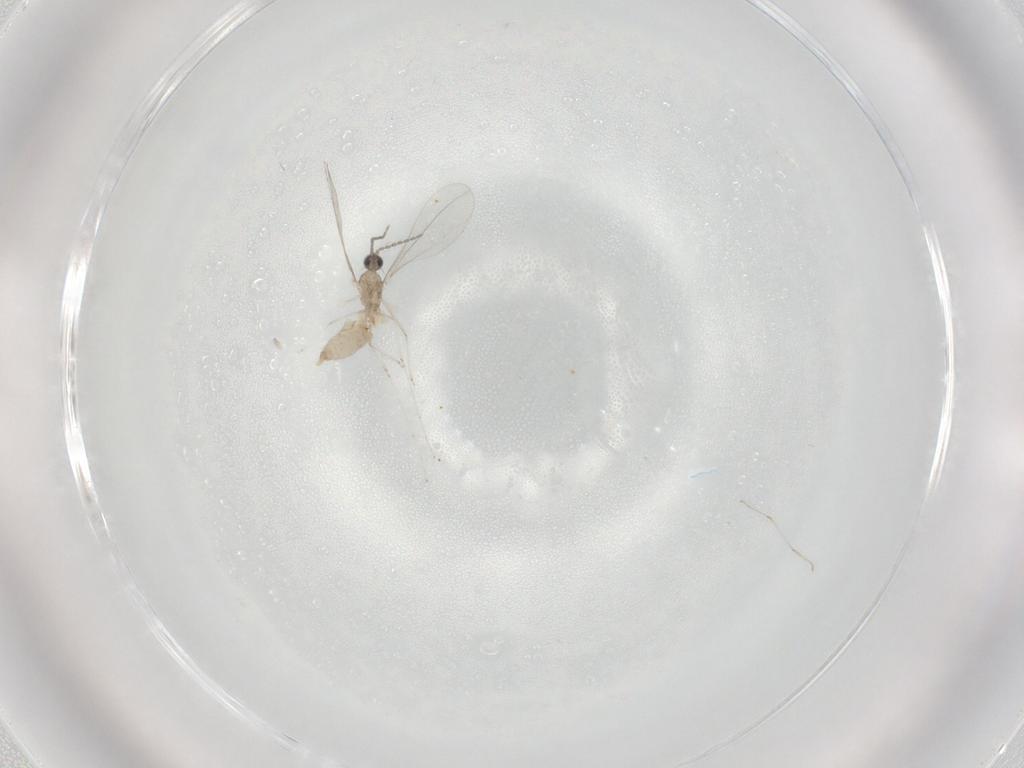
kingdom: Animalia
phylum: Arthropoda
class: Insecta
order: Diptera
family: Cecidomyiidae
